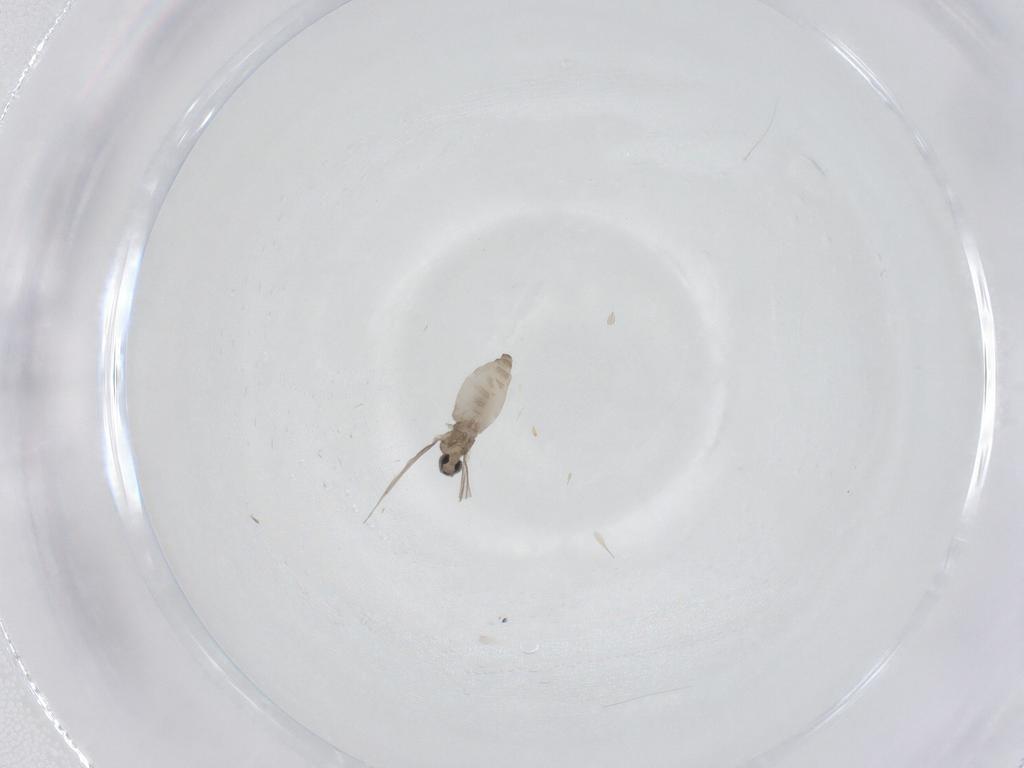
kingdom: Animalia
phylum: Arthropoda
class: Insecta
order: Diptera
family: Cecidomyiidae
